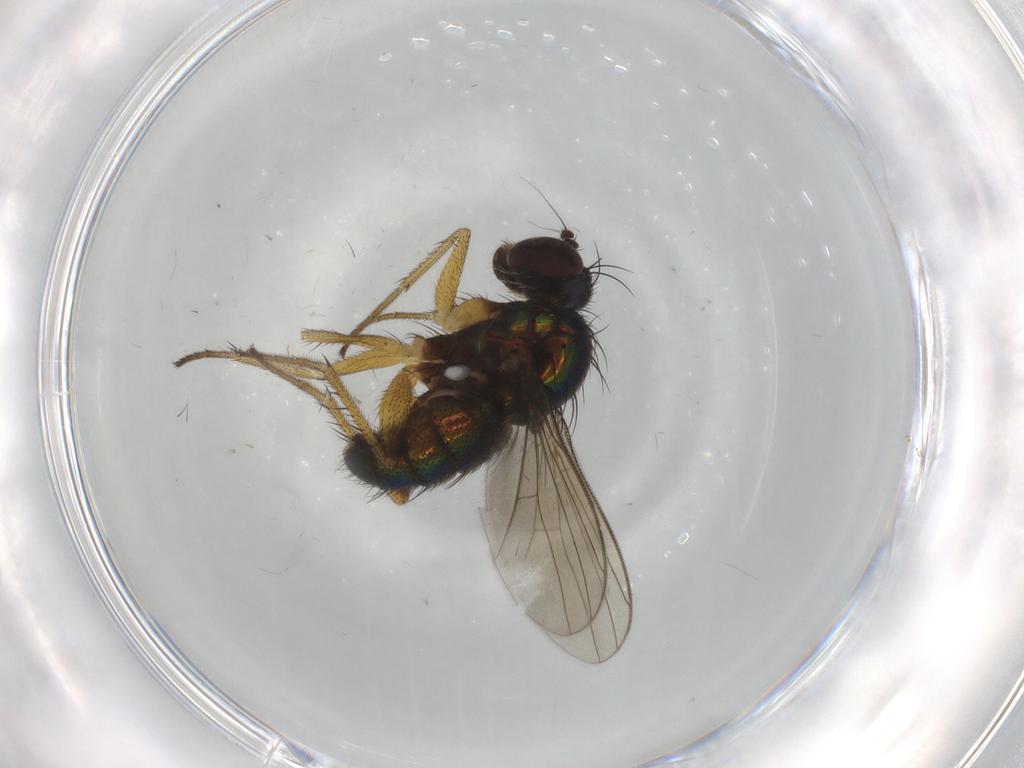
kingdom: Animalia
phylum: Arthropoda
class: Insecta
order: Diptera
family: Dolichopodidae
